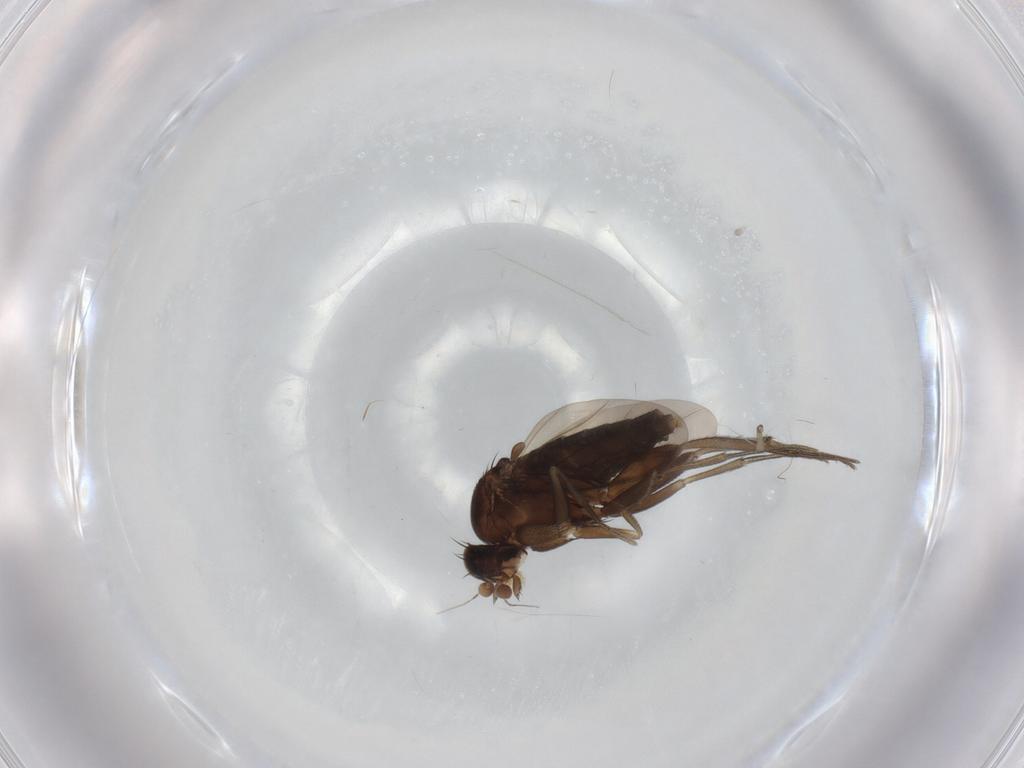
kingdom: Animalia
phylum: Arthropoda
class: Insecta
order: Diptera
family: Phoridae
